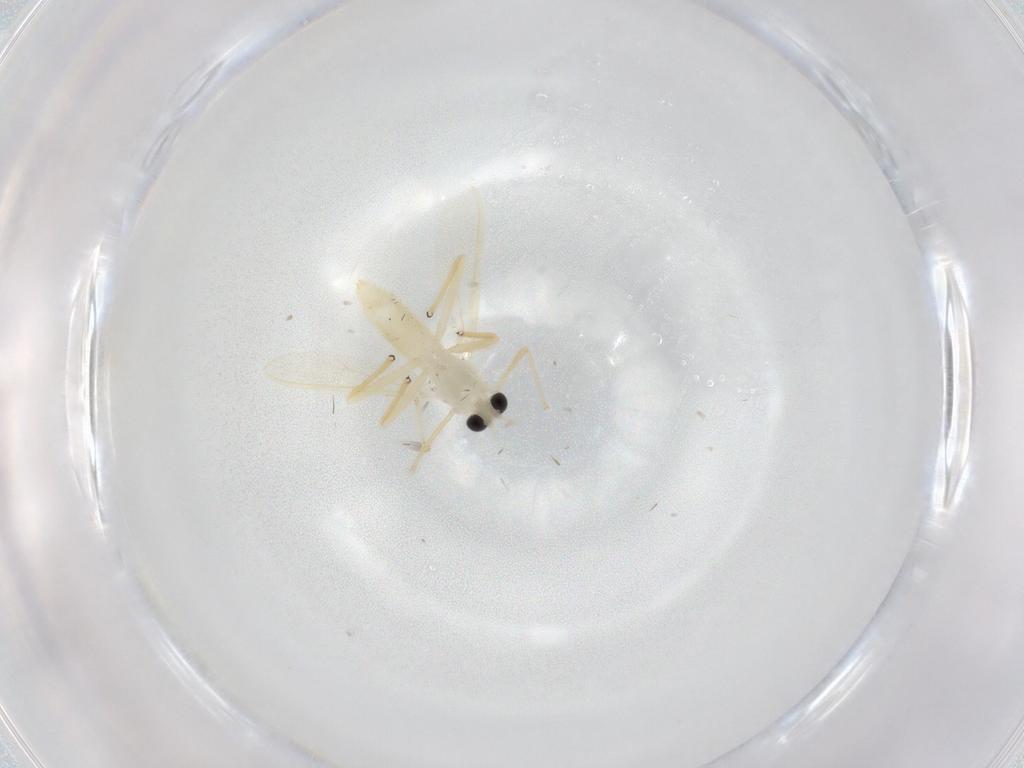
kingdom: Animalia
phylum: Arthropoda
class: Insecta
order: Diptera
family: Chironomidae
